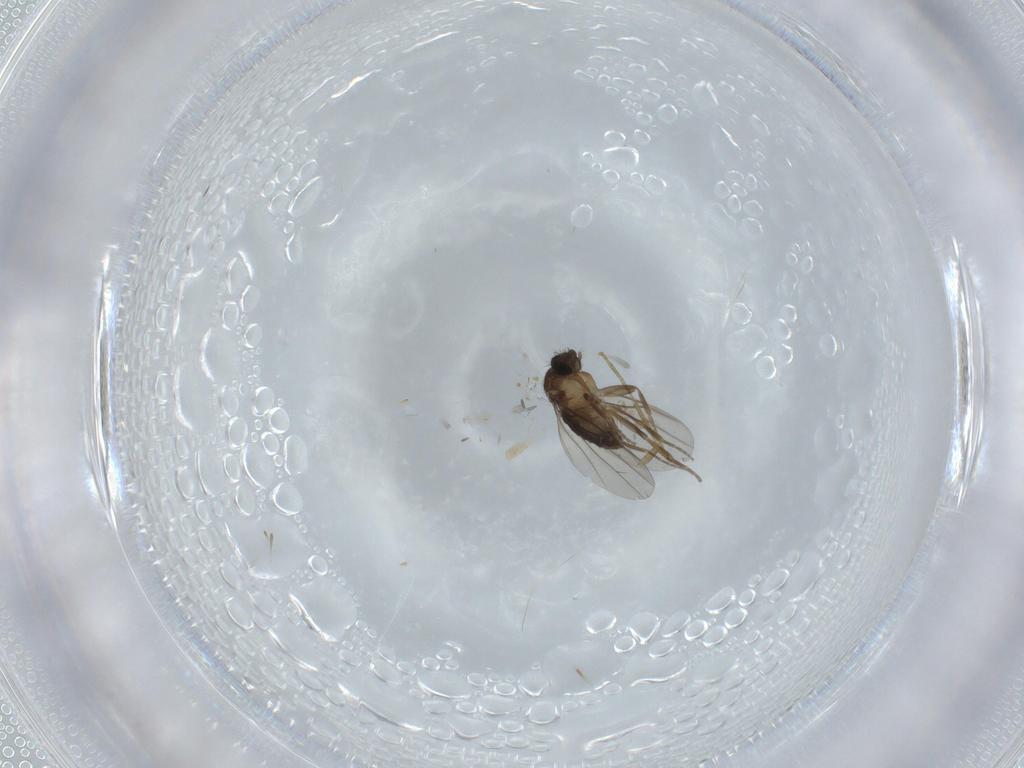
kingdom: Animalia
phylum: Arthropoda
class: Insecta
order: Diptera
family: Phoridae
